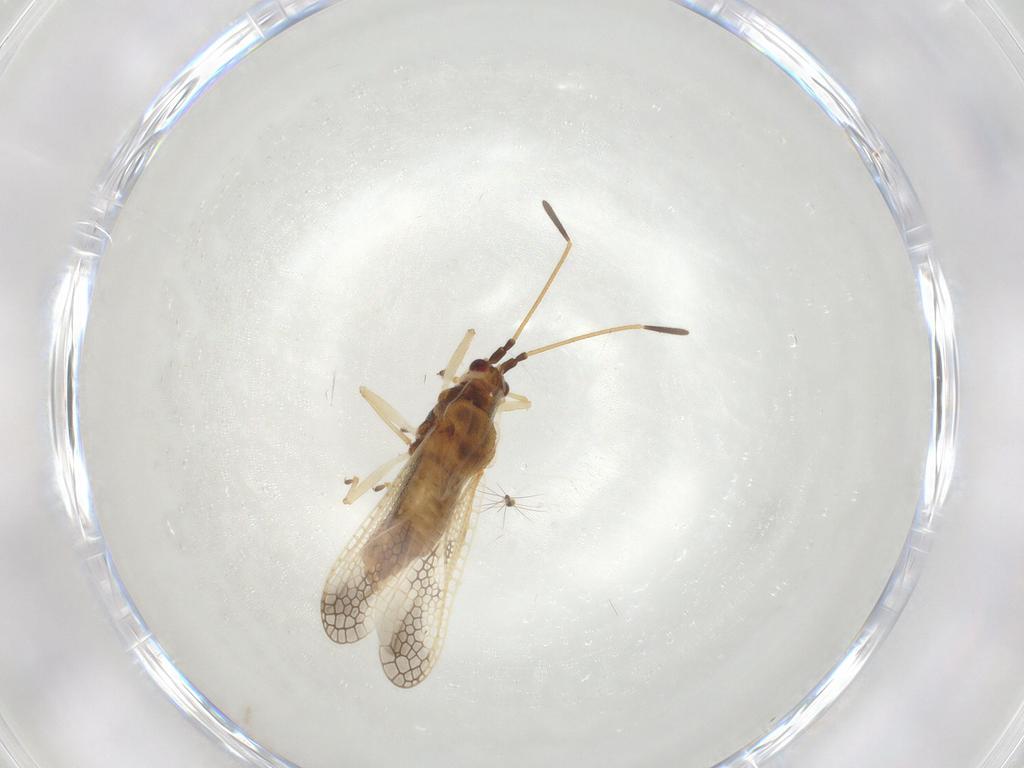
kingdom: Animalia
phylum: Arthropoda
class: Insecta
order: Hemiptera
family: Tingidae
